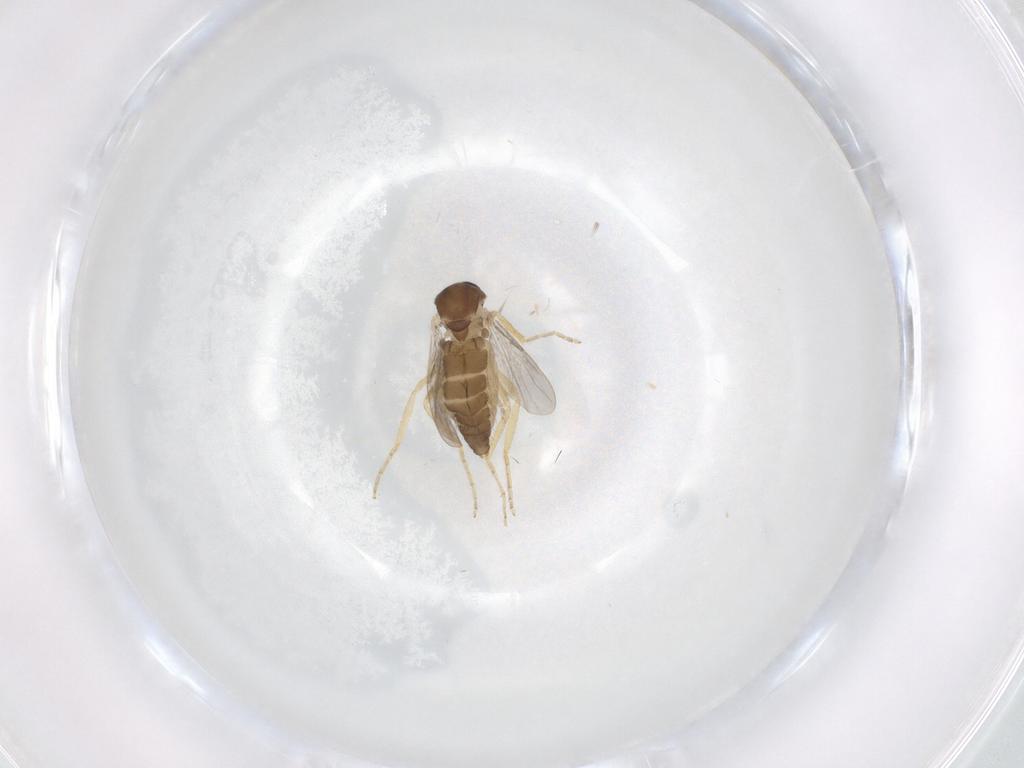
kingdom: Animalia
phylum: Arthropoda
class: Insecta
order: Diptera
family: Ceratopogonidae
